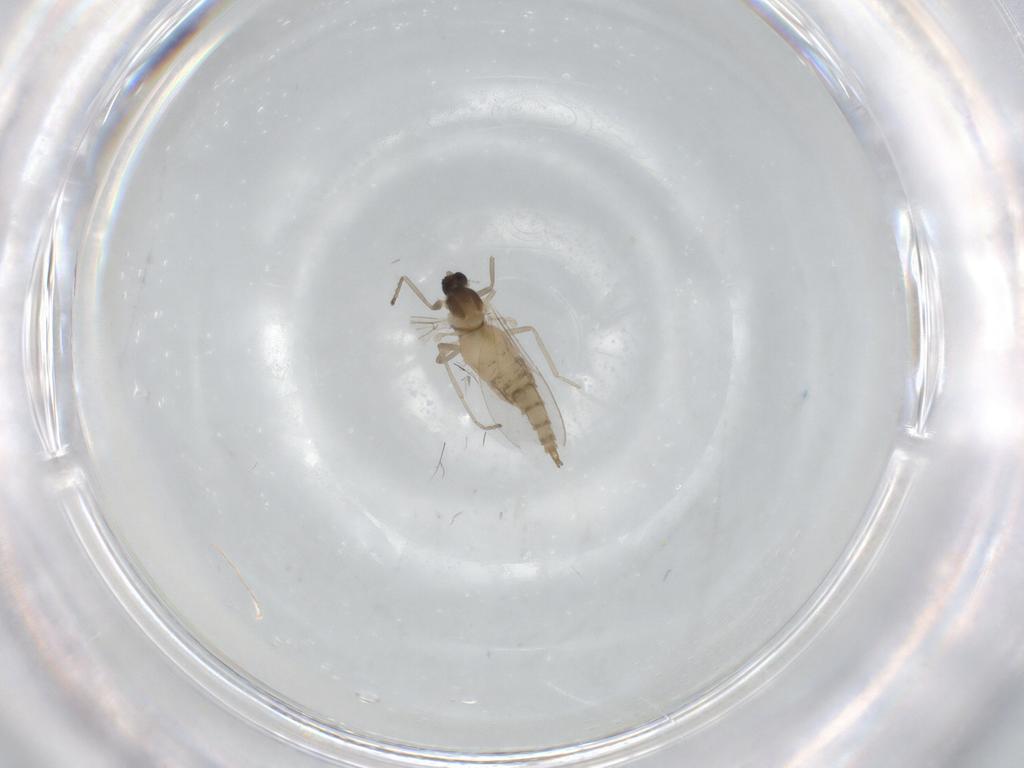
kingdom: Animalia
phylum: Arthropoda
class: Insecta
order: Diptera
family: Cecidomyiidae
